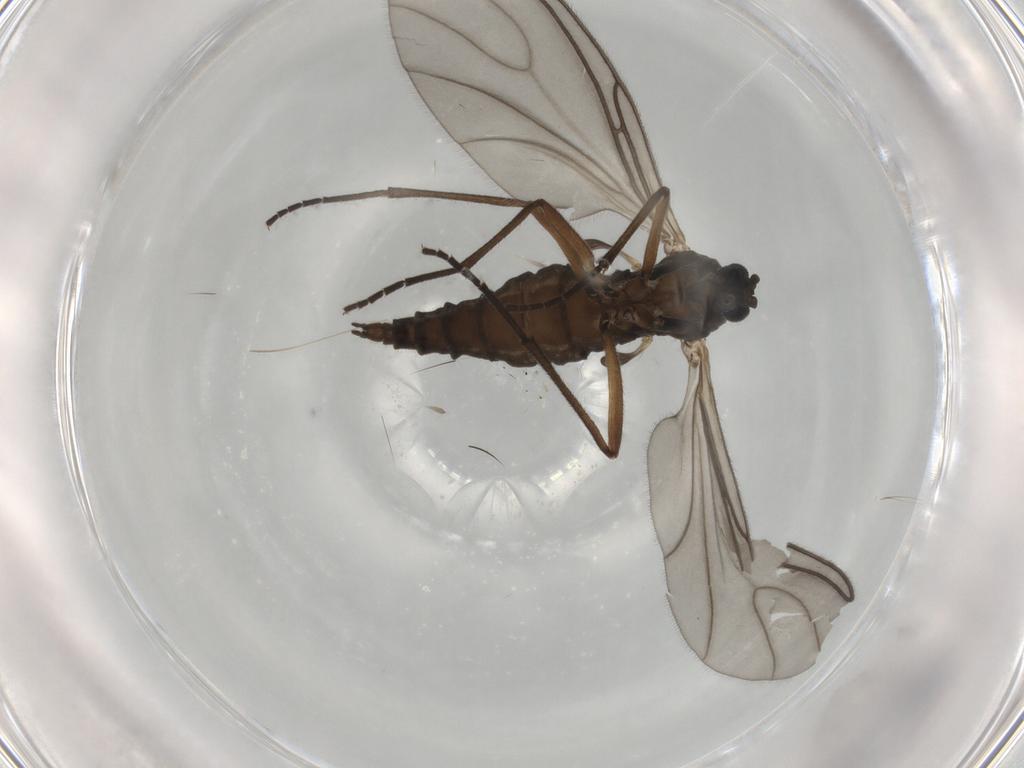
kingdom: Animalia
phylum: Arthropoda
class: Insecta
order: Diptera
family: Sciaridae
